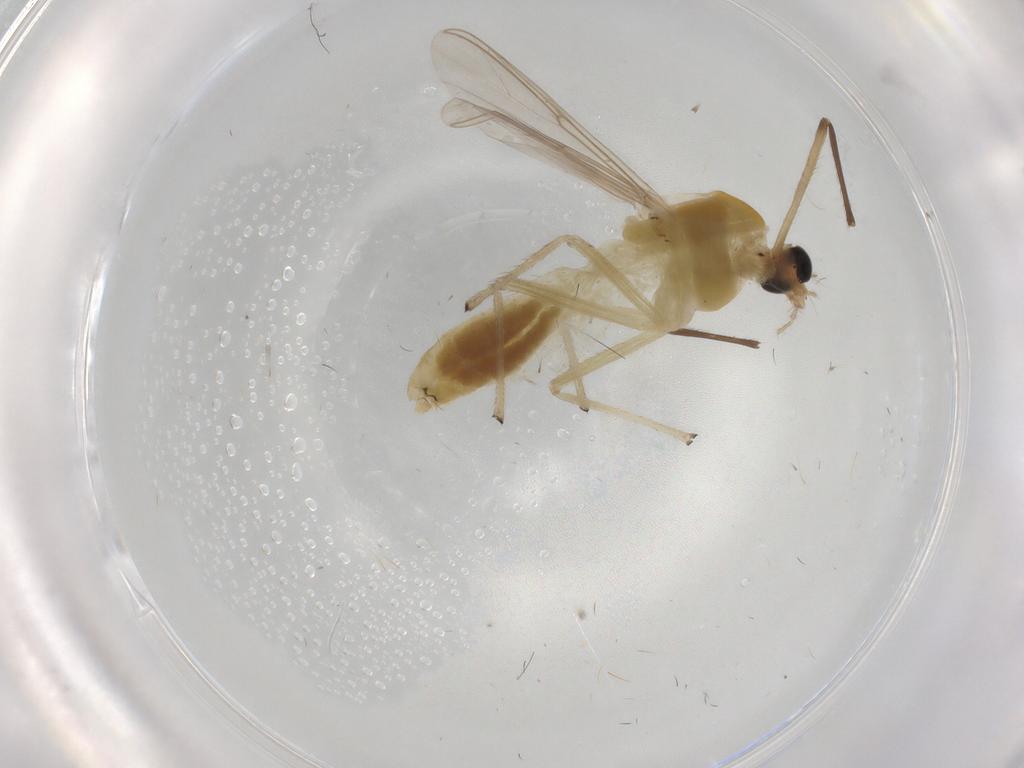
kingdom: Animalia
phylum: Arthropoda
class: Insecta
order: Diptera
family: Chironomidae
